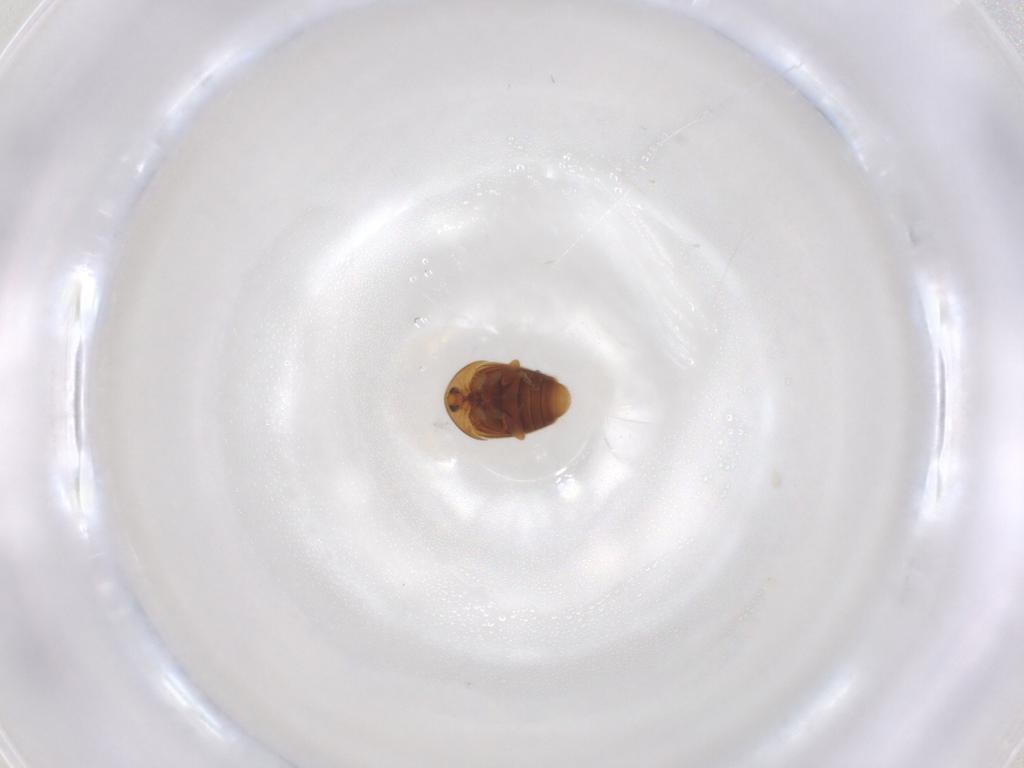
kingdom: Animalia
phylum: Arthropoda
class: Insecta
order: Coleoptera
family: Corylophidae
